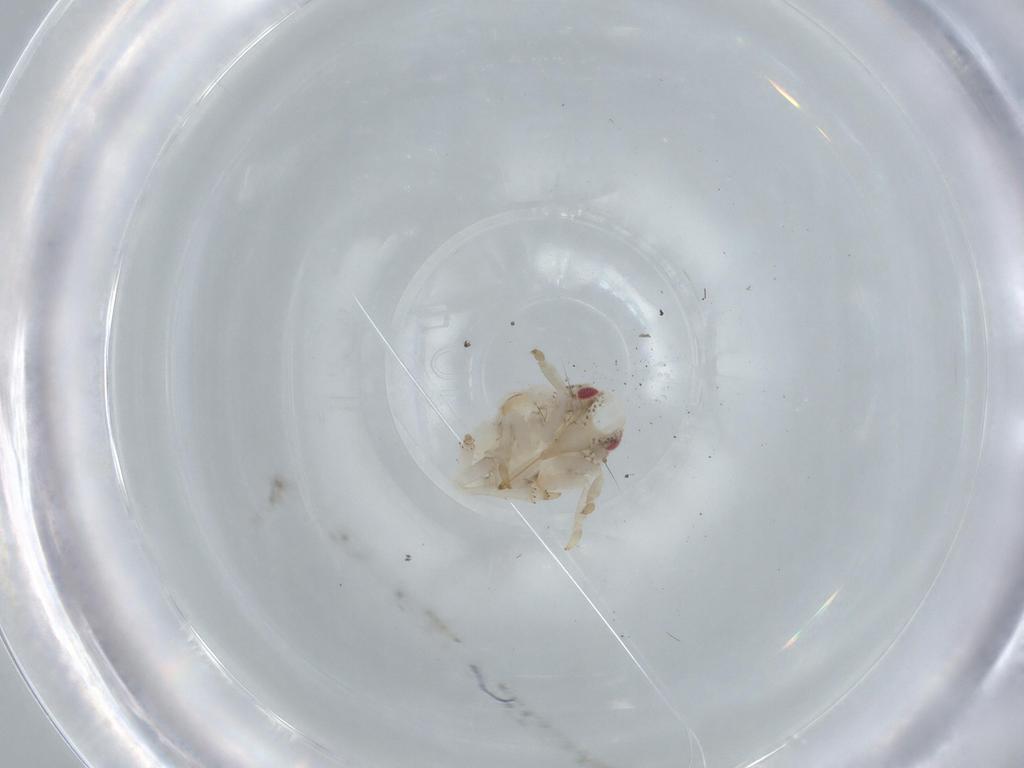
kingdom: Animalia
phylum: Arthropoda
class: Insecta
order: Hemiptera
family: Acanaloniidae
